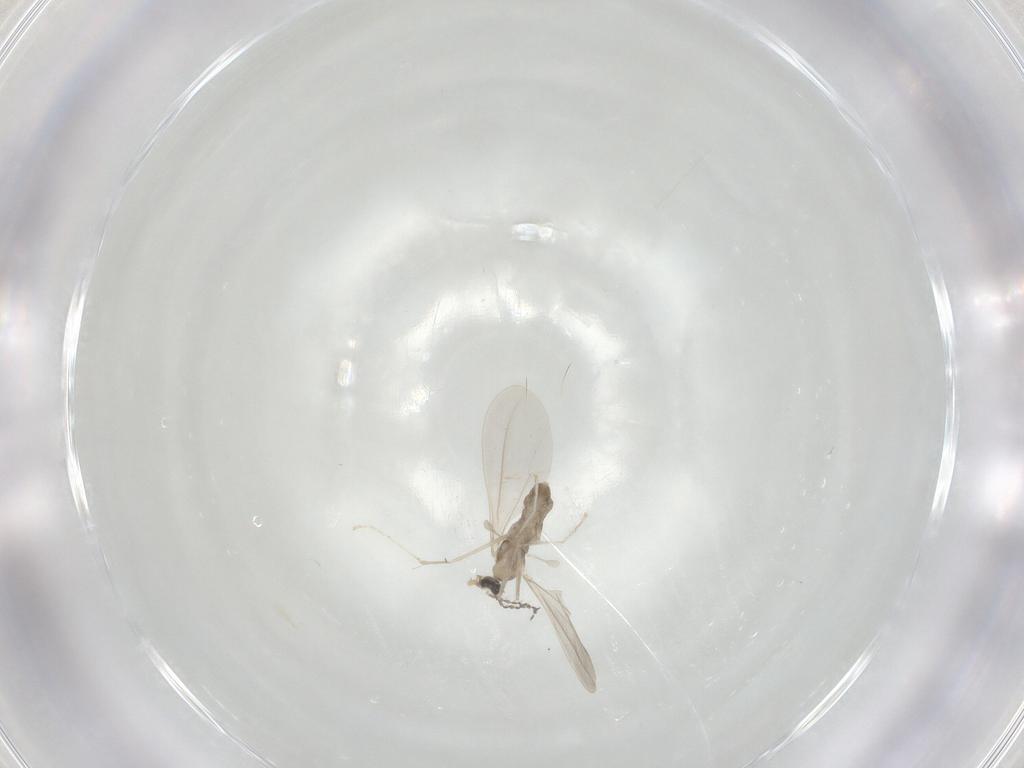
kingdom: Animalia
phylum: Arthropoda
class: Insecta
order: Diptera
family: Cecidomyiidae
